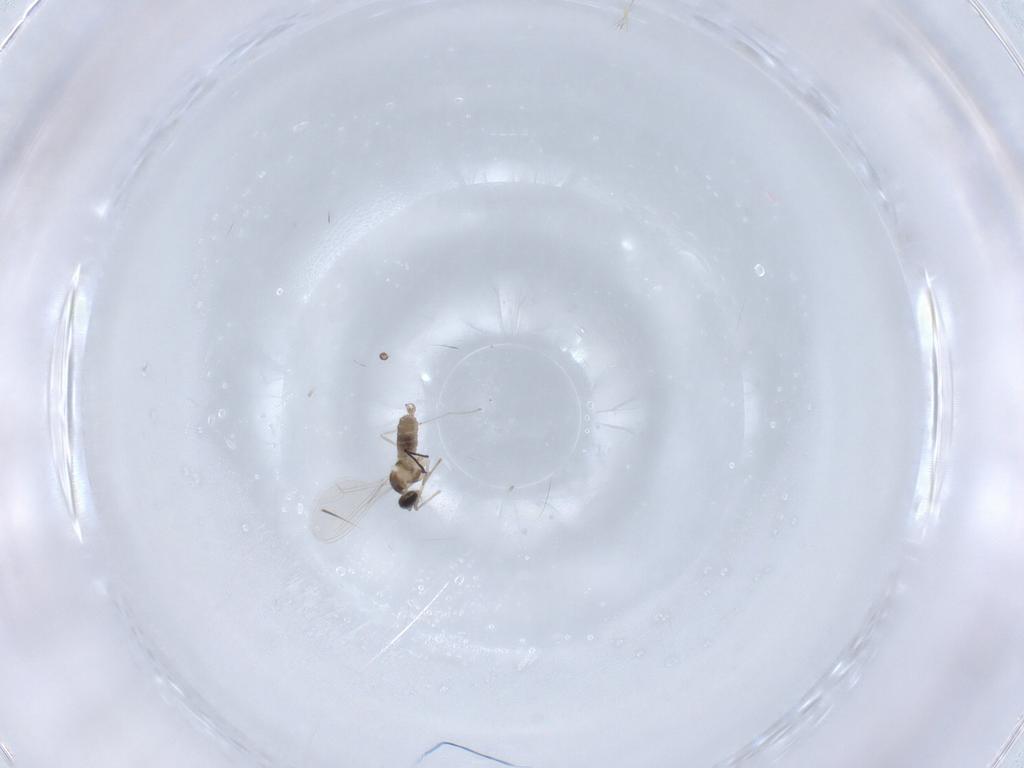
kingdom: Animalia
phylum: Arthropoda
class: Insecta
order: Diptera
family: Cecidomyiidae
